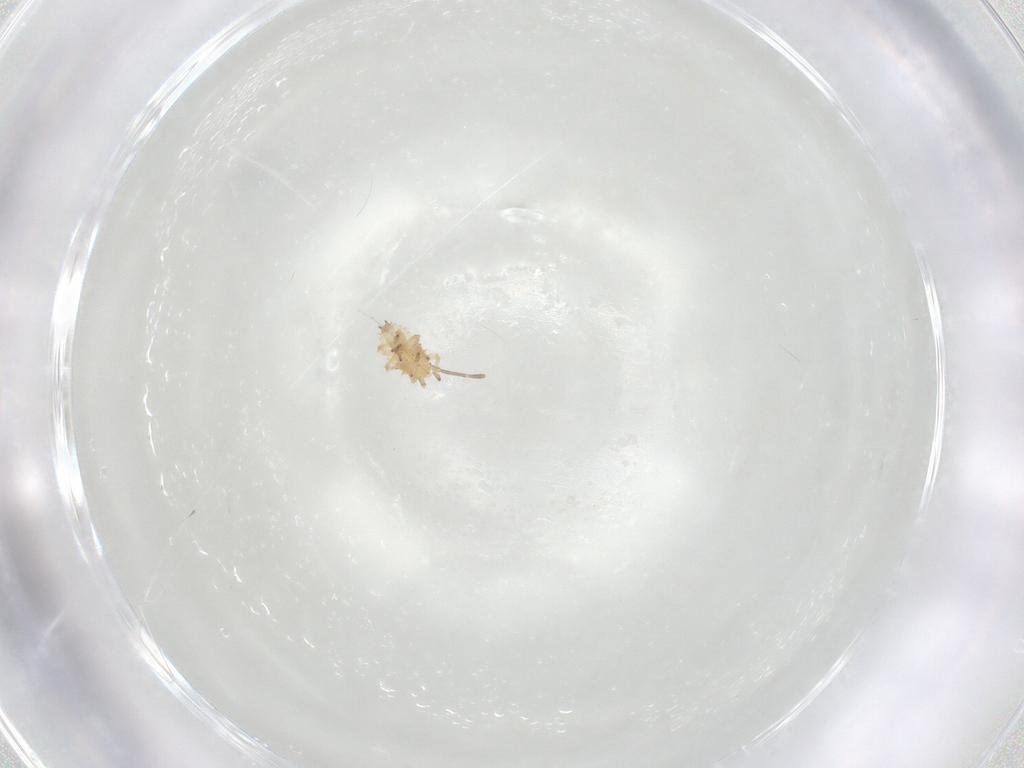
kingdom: Animalia
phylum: Arthropoda
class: Insecta
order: Hemiptera
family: Tingidae
